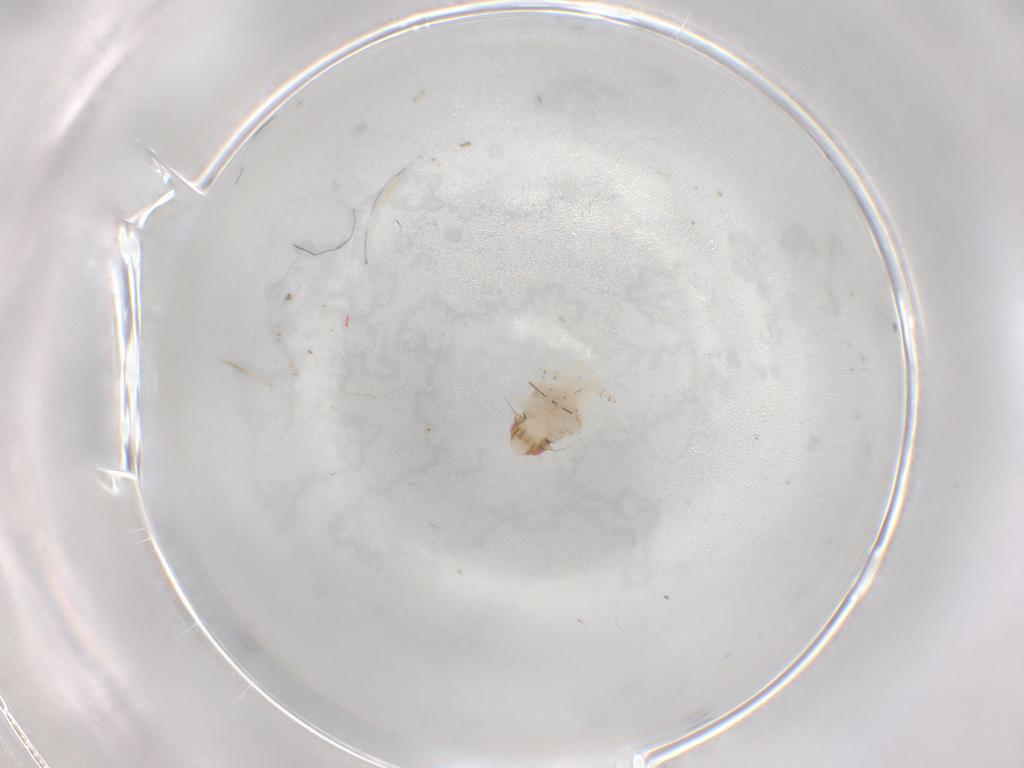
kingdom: Animalia
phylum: Arthropoda
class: Insecta
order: Hemiptera
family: Nogodinidae
